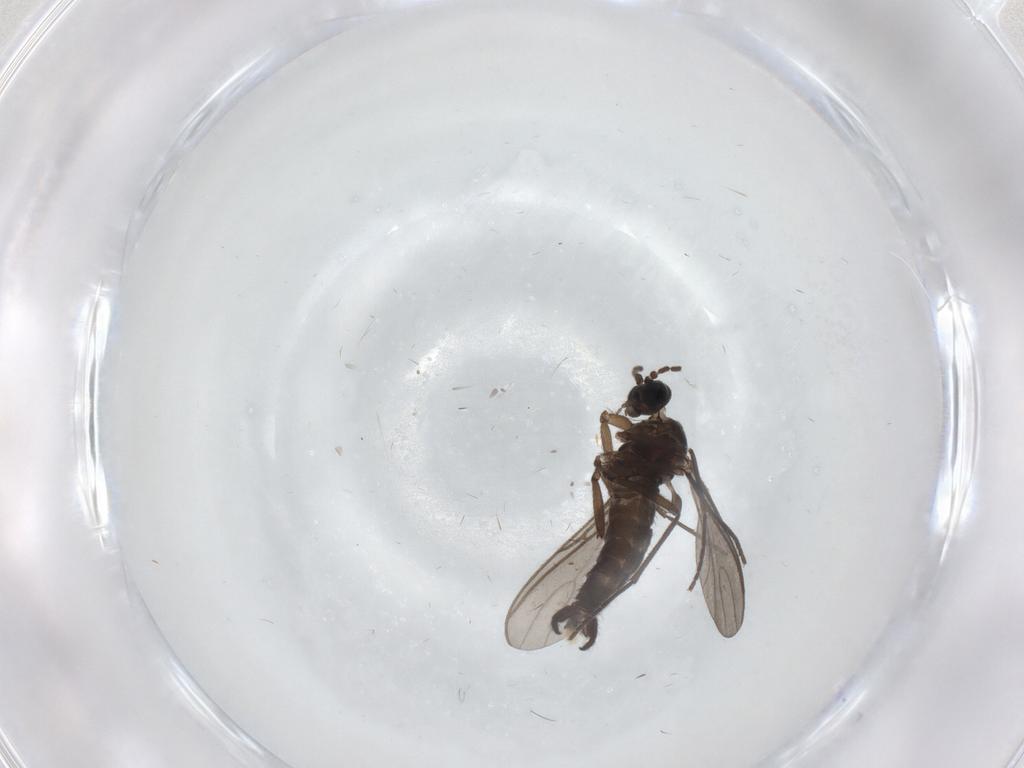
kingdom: Animalia
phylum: Arthropoda
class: Insecta
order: Diptera
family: Sciaridae
